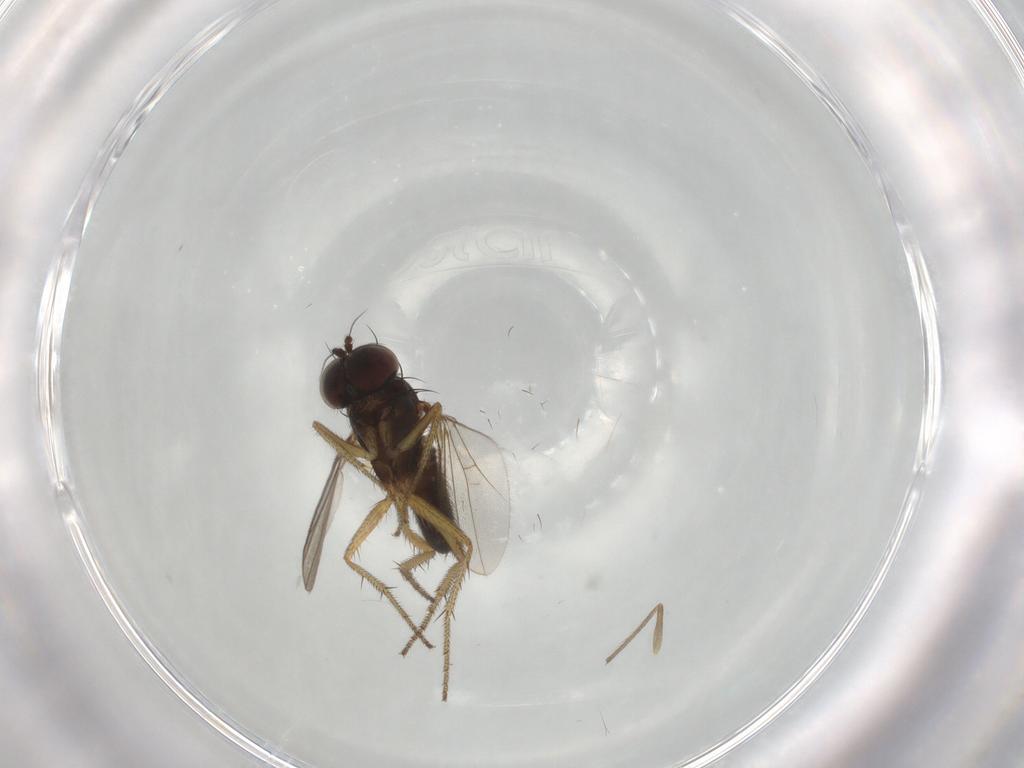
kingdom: Animalia
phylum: Arthropoda
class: Insecta
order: Diptera
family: Dolichopodidae
